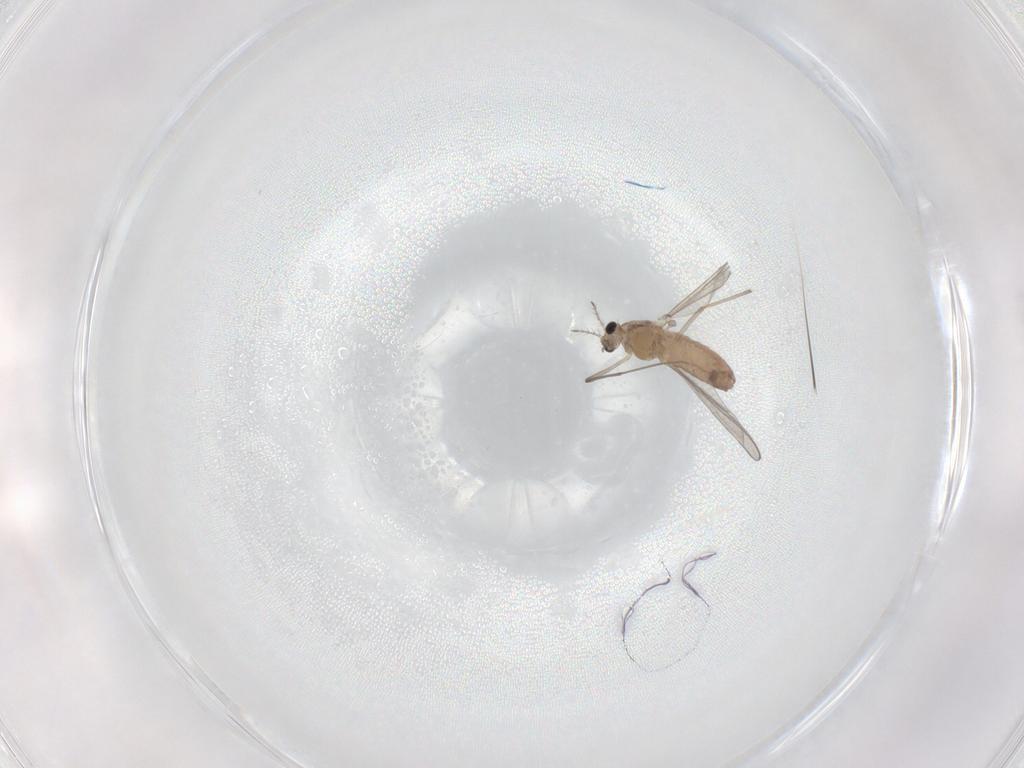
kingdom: Animalia
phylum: Arthropoda
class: Insecta
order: Diptera
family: Chironomidae
